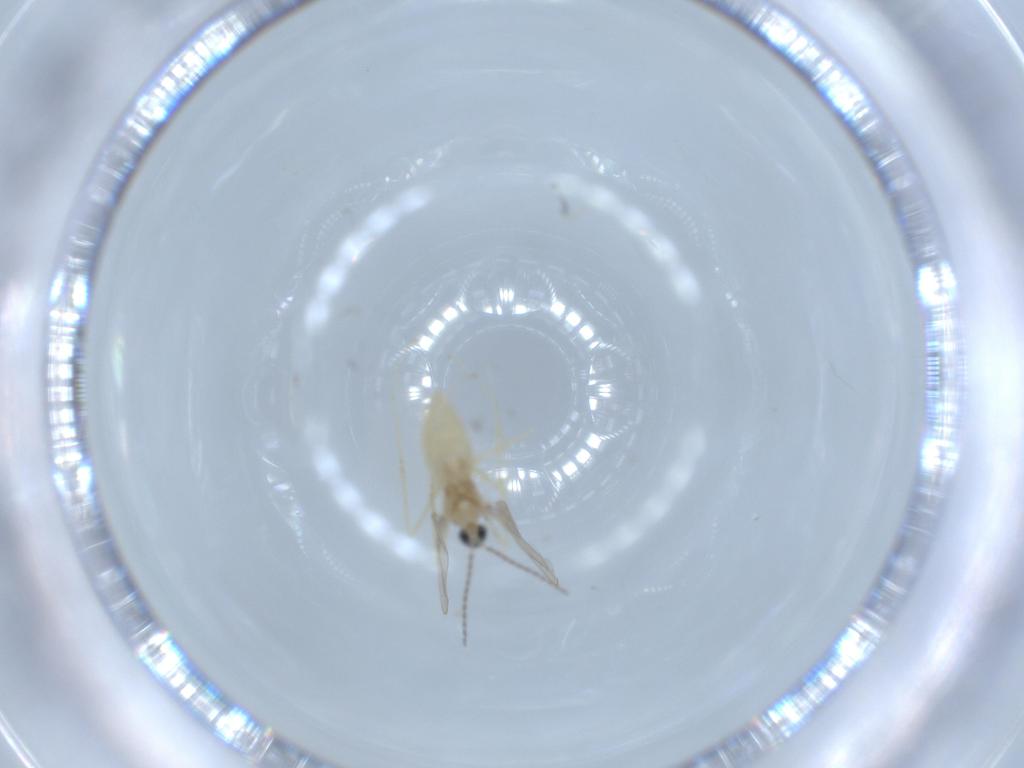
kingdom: Animalia
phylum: Arthropoda
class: Insecta
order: Diptera
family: Cecidomyiidae
